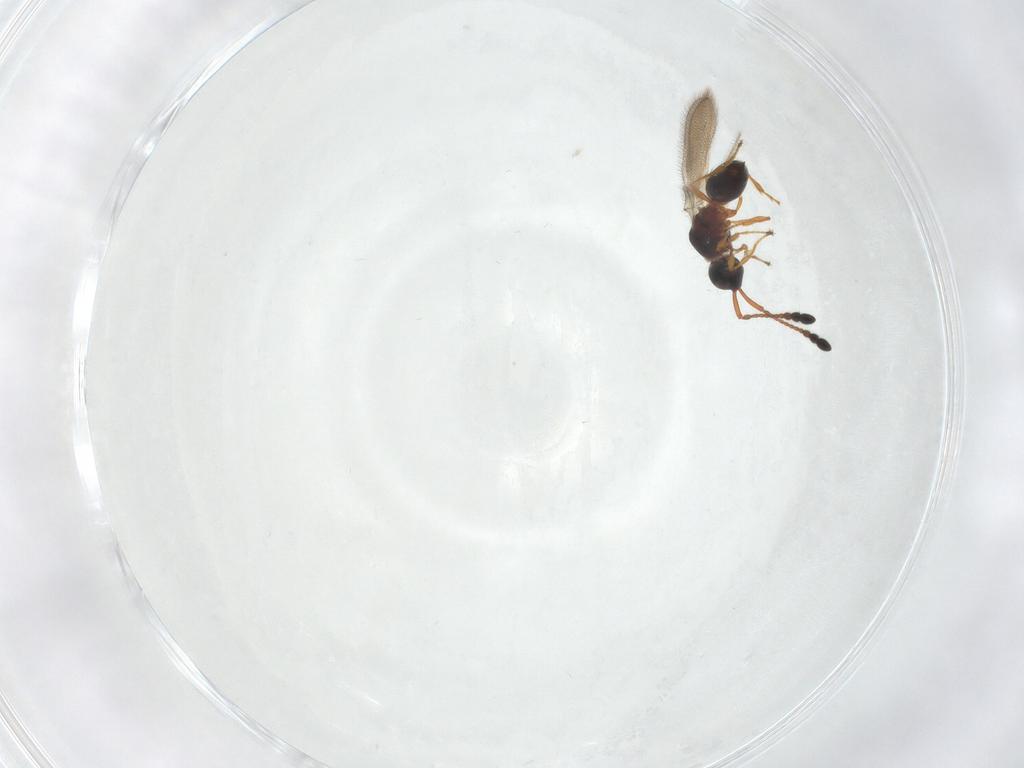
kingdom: Animalia
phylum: Arthropoda
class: Insecta
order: Hymenoptera
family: Diapriidae
